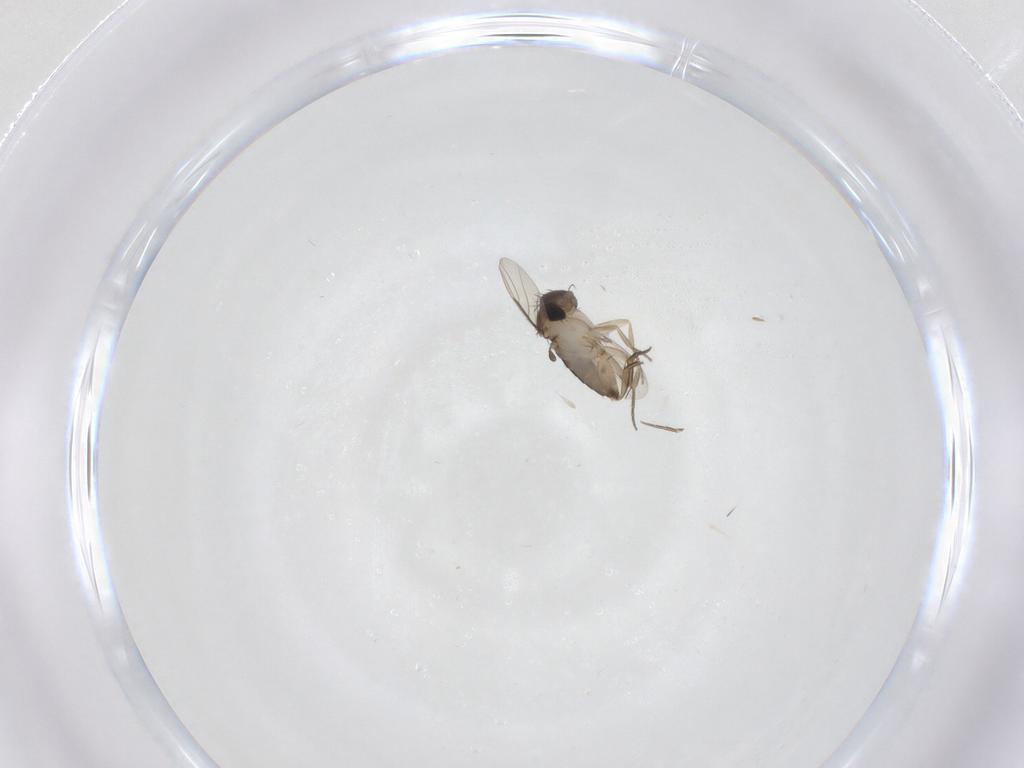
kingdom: Animalia
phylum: Arthropoda
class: Insecta
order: Diptera
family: Phoridae
